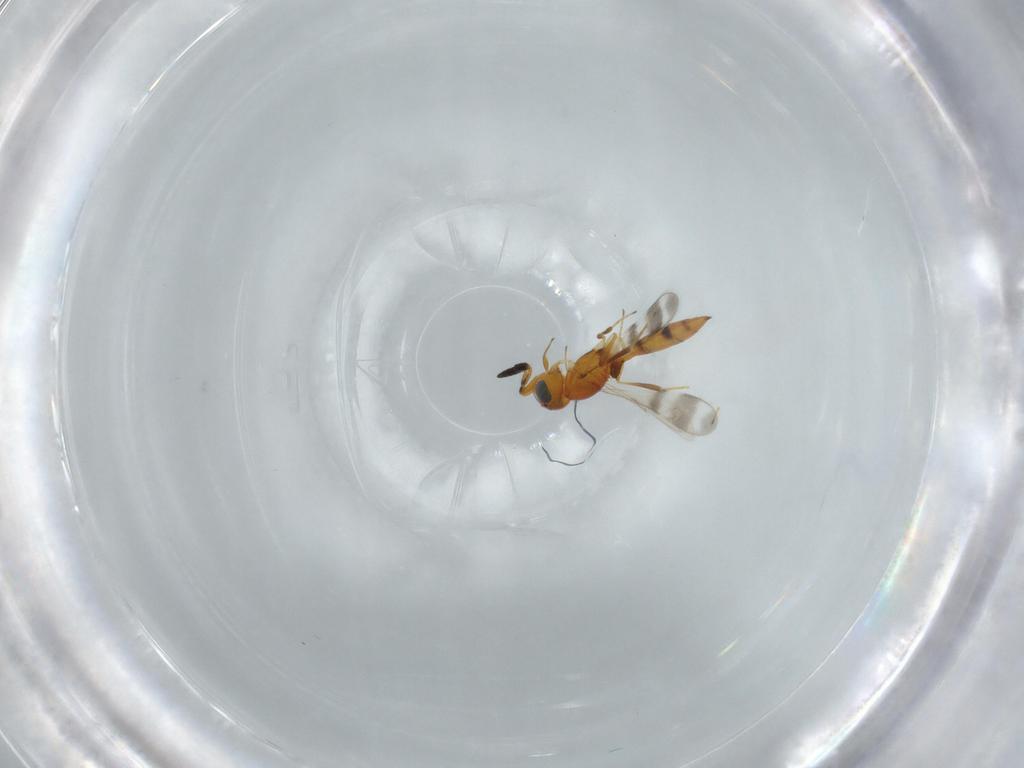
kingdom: Animalia
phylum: Arthropoda
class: Insecta
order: Hymenoptera
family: Scelionidae
